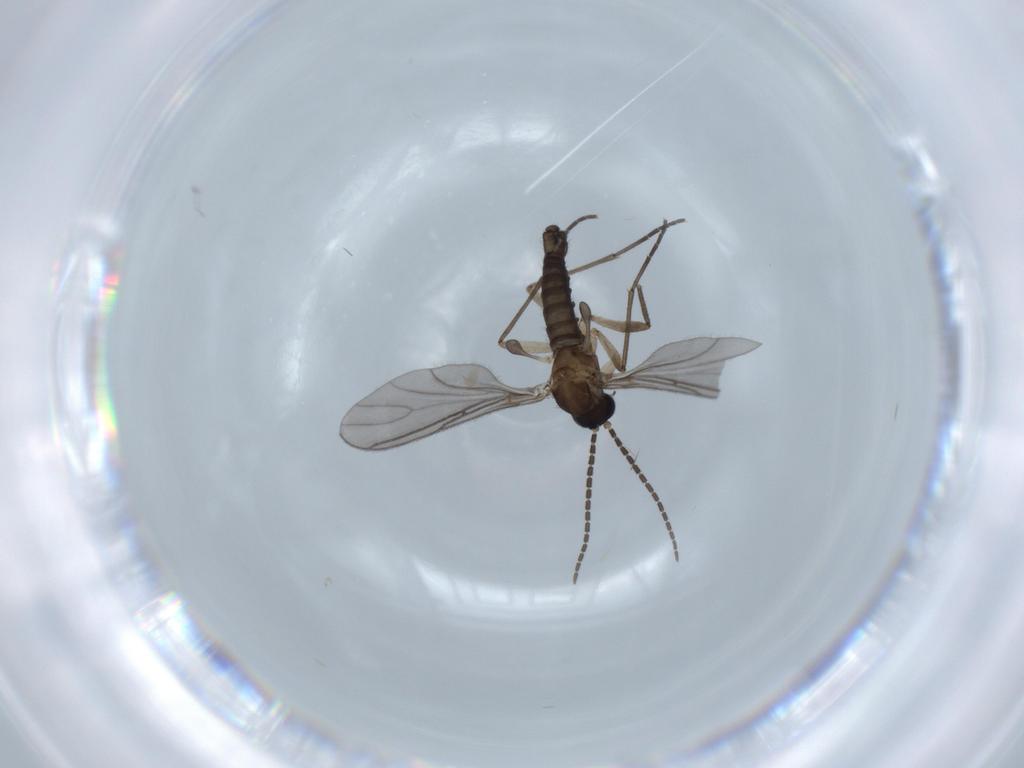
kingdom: Animalia
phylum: Arthropoda
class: Insecta
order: Diptera
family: Sciaridae
